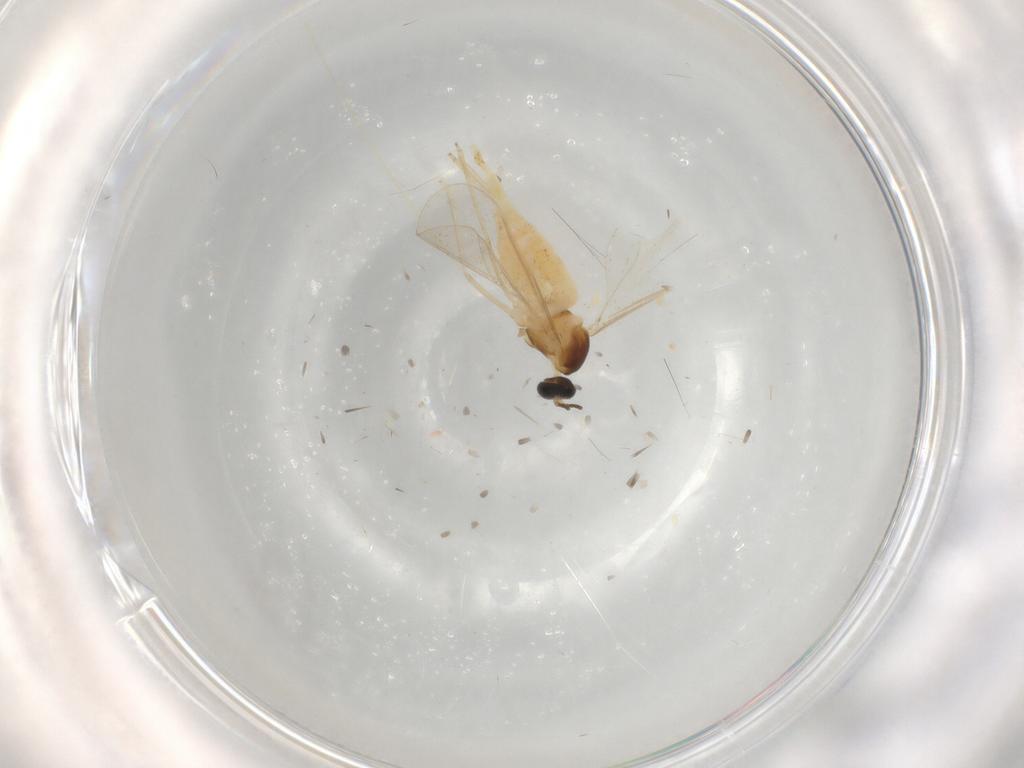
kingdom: Animalia
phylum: Arthropoda
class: Insecta
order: Diptera
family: Cecidomyiidae
